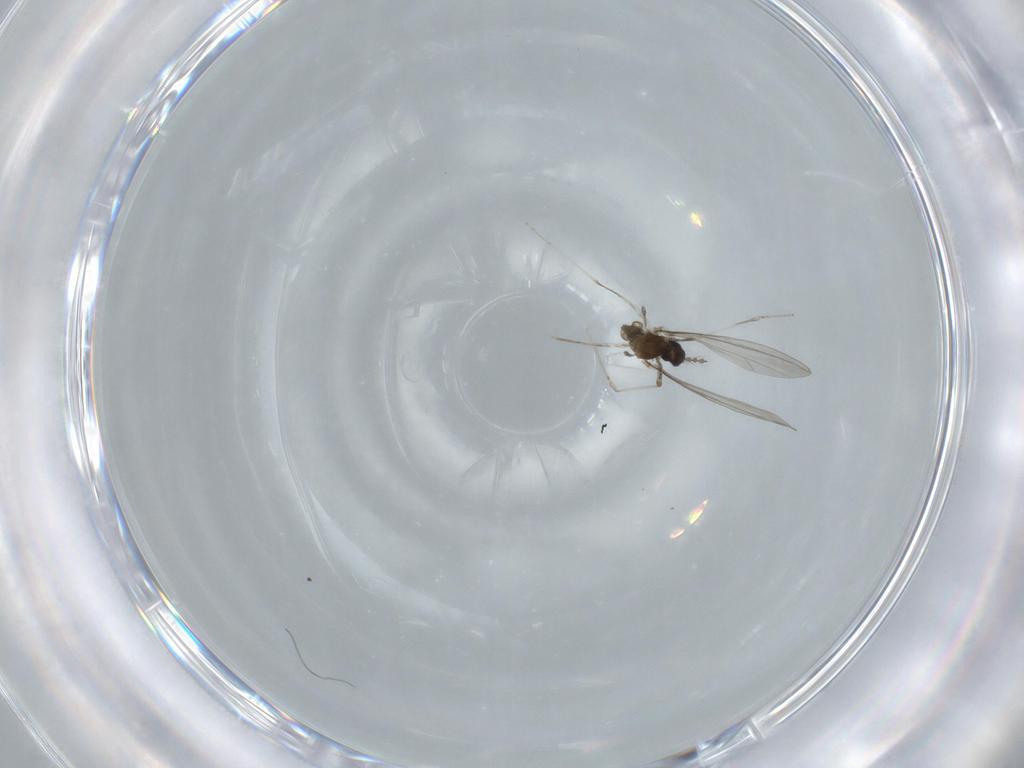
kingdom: Animalia
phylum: Arthropoda
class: Insecta
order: Diptera
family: Cecidomyiidae
